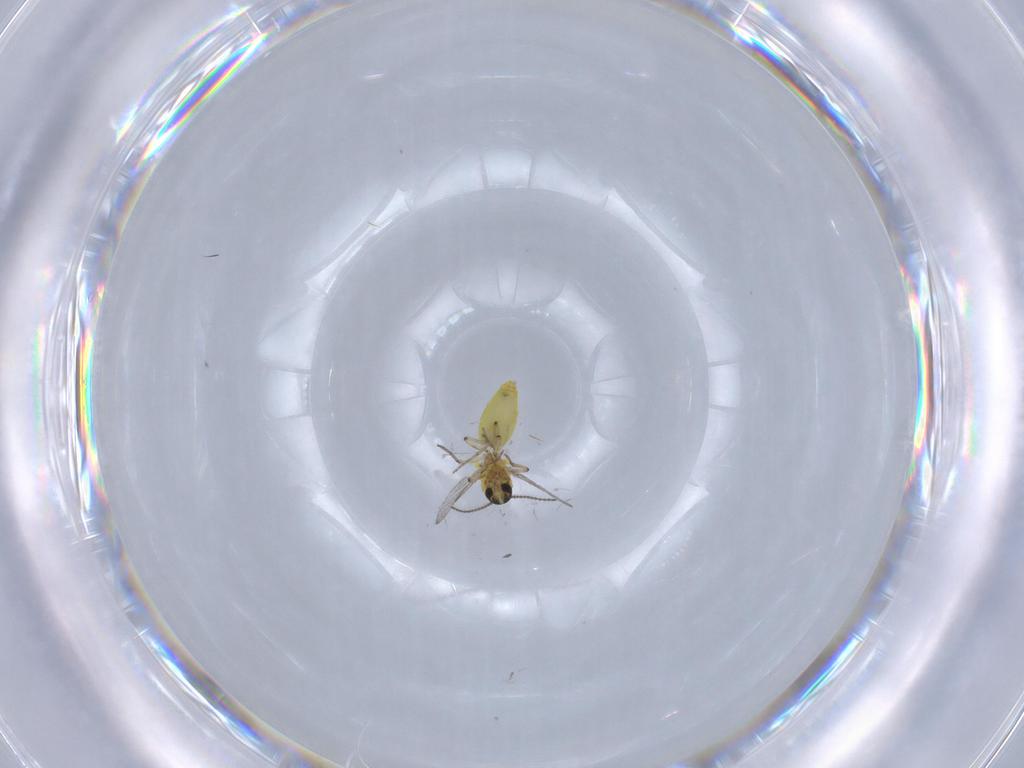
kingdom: Animalia
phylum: Arthropoda
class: Insecta
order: Diptera
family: Ceratopogonidae
